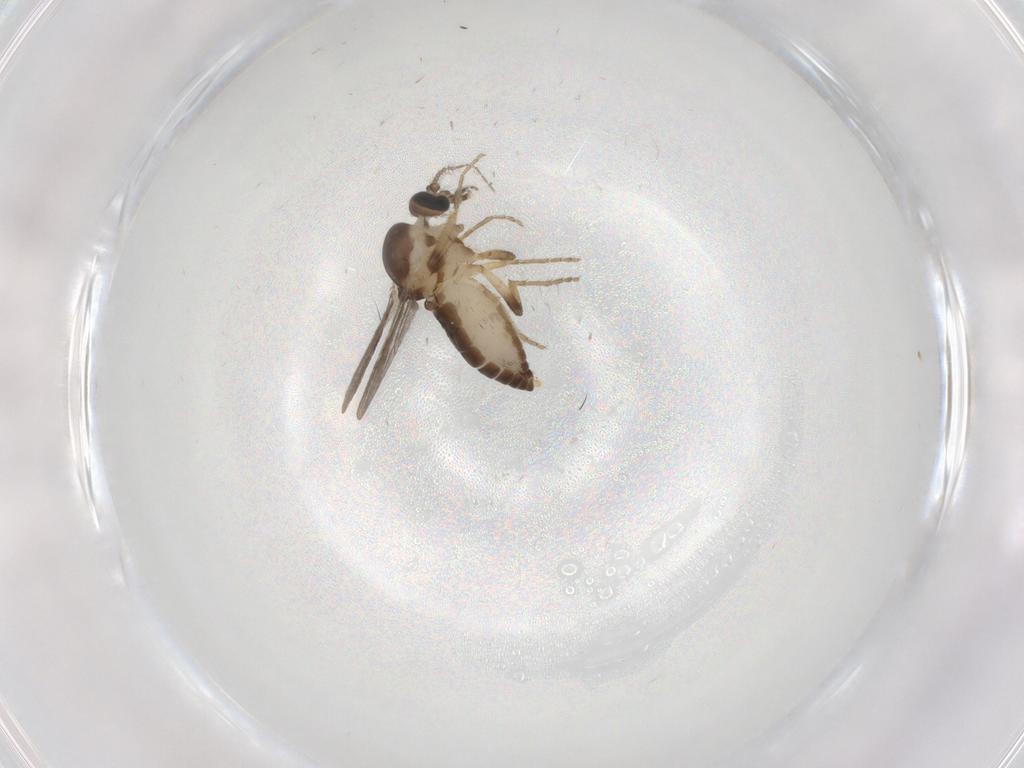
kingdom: Animalia
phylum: Arthropoda
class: Insecta
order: Diptera
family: Ceratopogonidae
